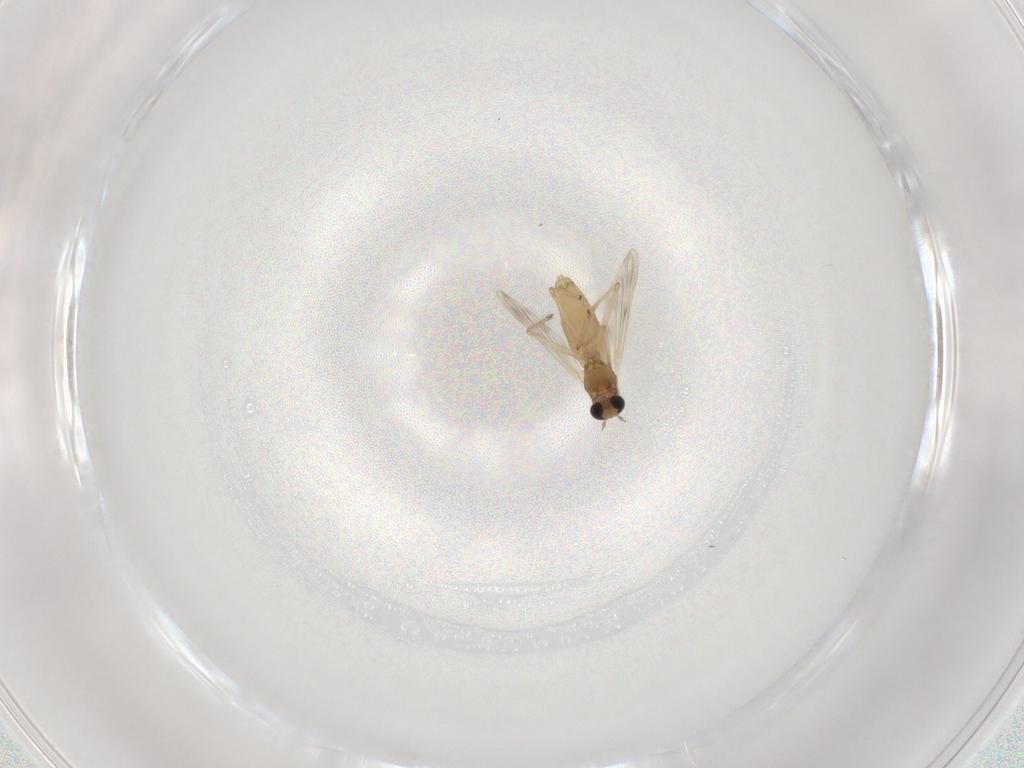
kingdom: Animalia
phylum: Arthropoda
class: Insecta
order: Diptera
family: Chironomidae
